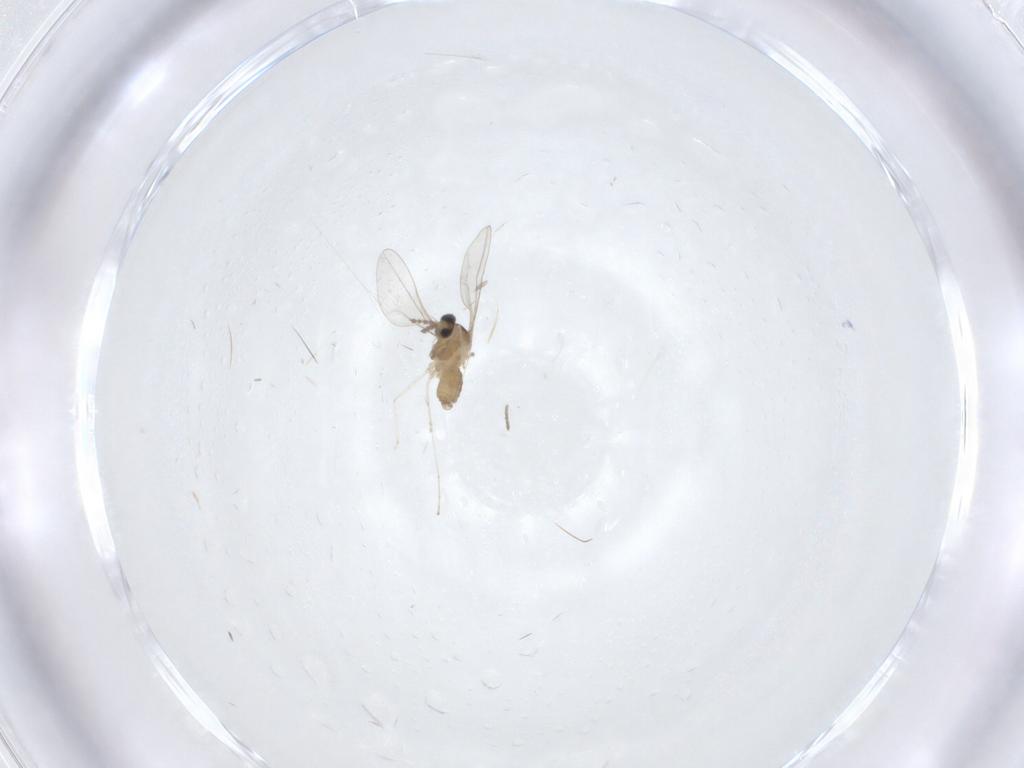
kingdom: Animalia
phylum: Arthropoda
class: Insecta
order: Diptera
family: Cecidomyiidae
